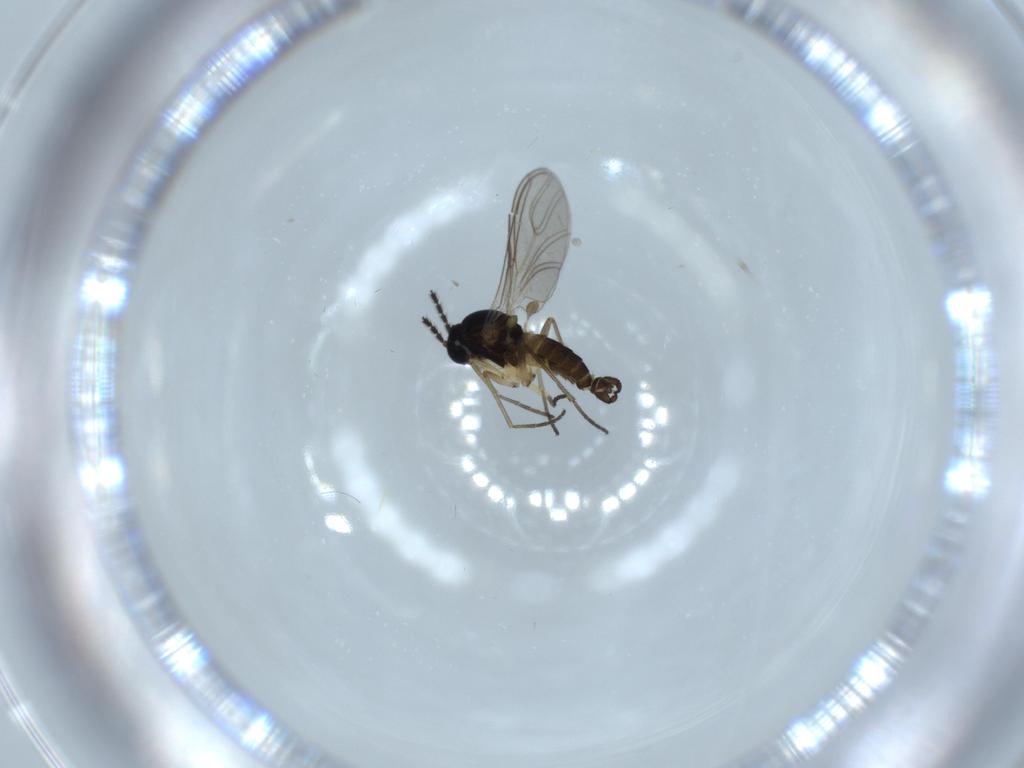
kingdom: Animalia
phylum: Arthropoda
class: Insecta
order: Diptera
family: Sciaridae
